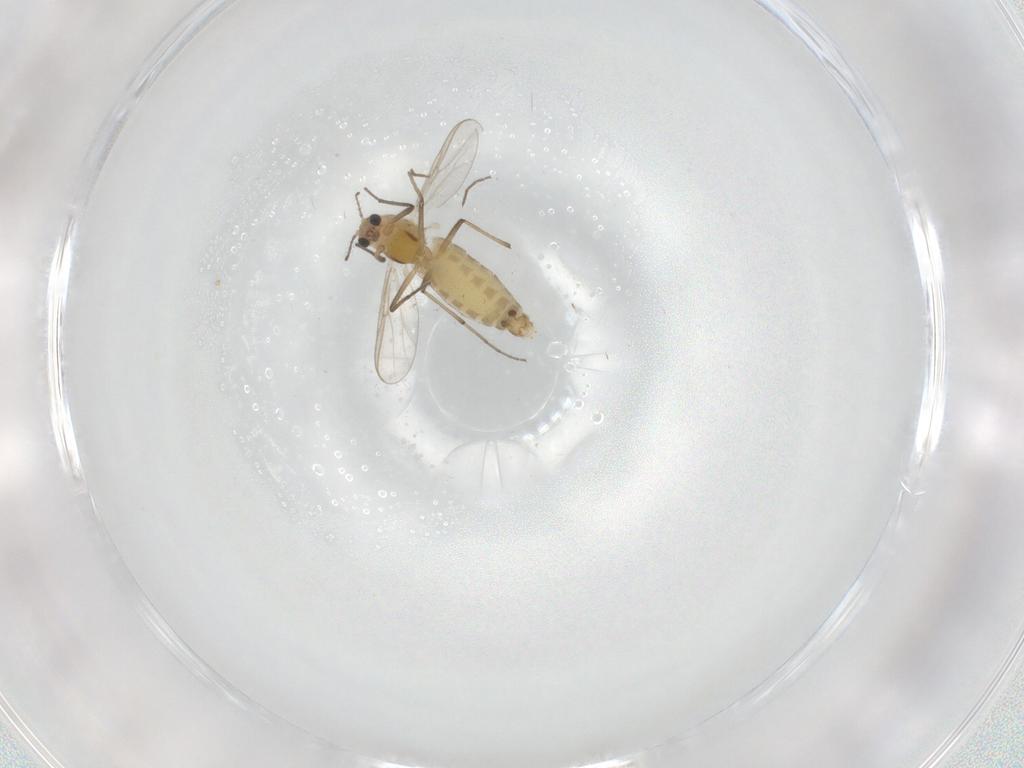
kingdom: Animalia
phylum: Arthropoda
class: Insecta
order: Diptera
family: Chironomidae
